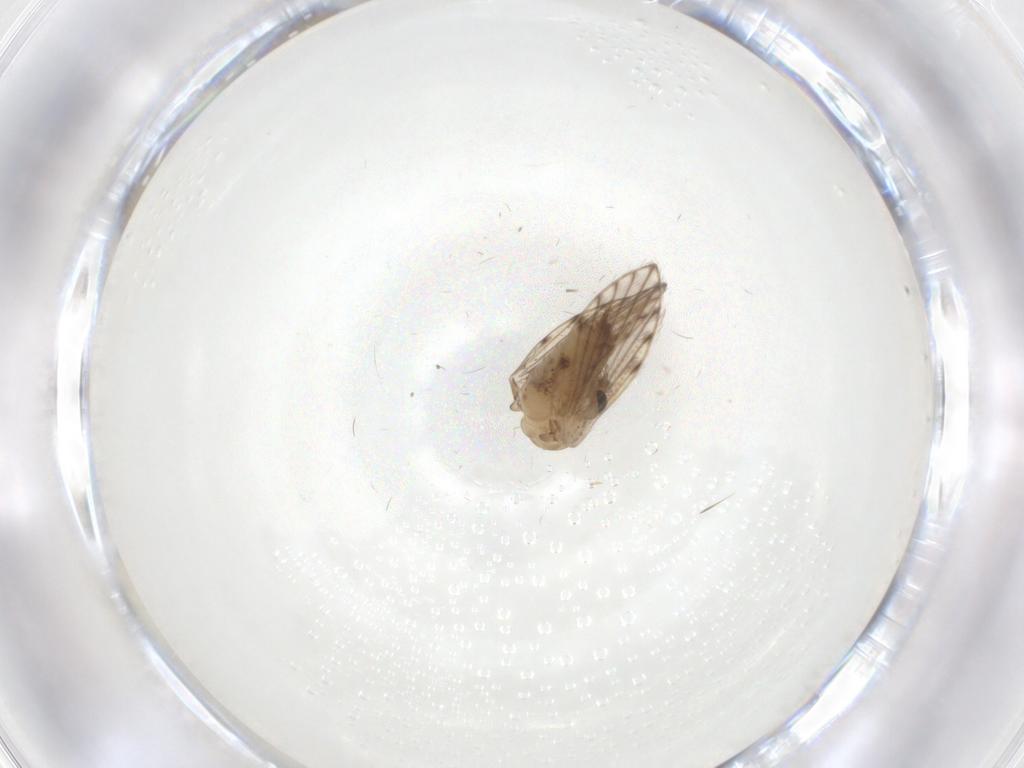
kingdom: Animalia
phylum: Arthropoda
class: Insecta
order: Diptera
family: Psychodidae
